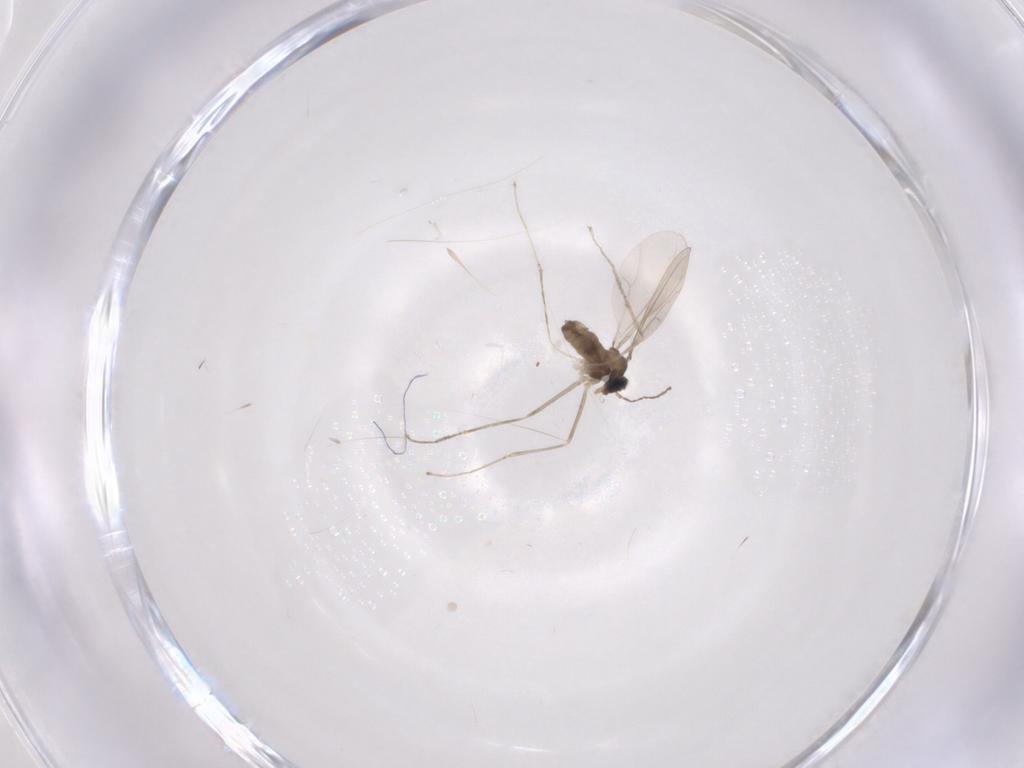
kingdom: Animalia
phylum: Arthropoda
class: Insecta
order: Diptera
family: Cecidomyiidae
